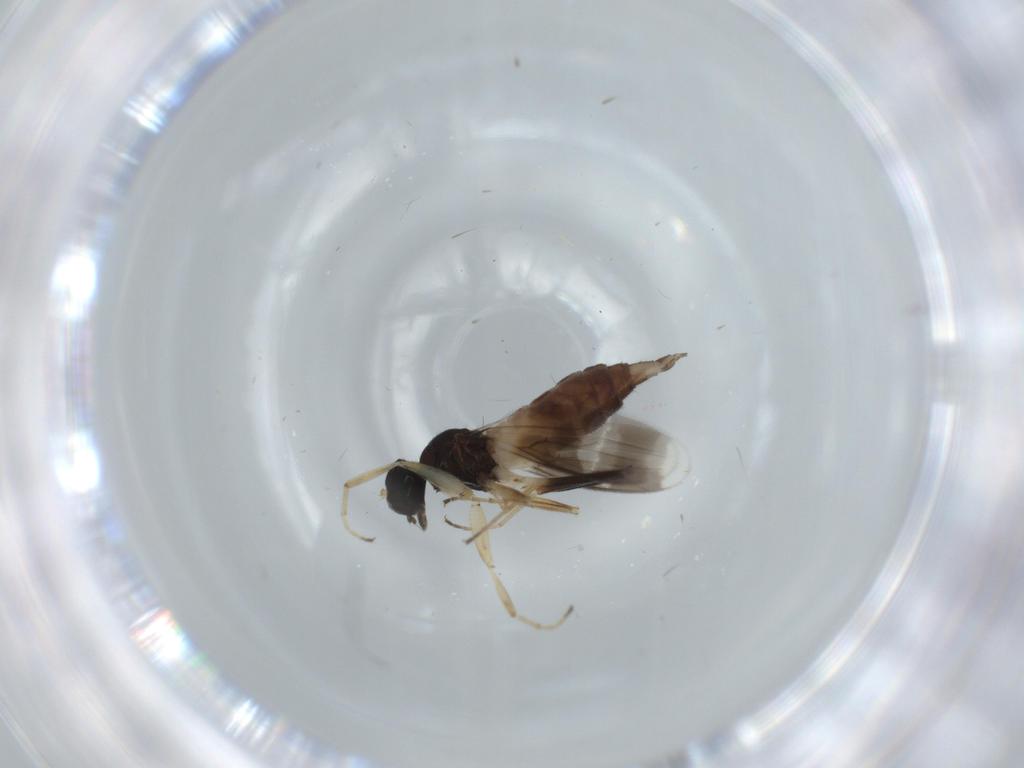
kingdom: Animalia
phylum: Arthropoda
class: Insecta
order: Diptera
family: Hybotidae
